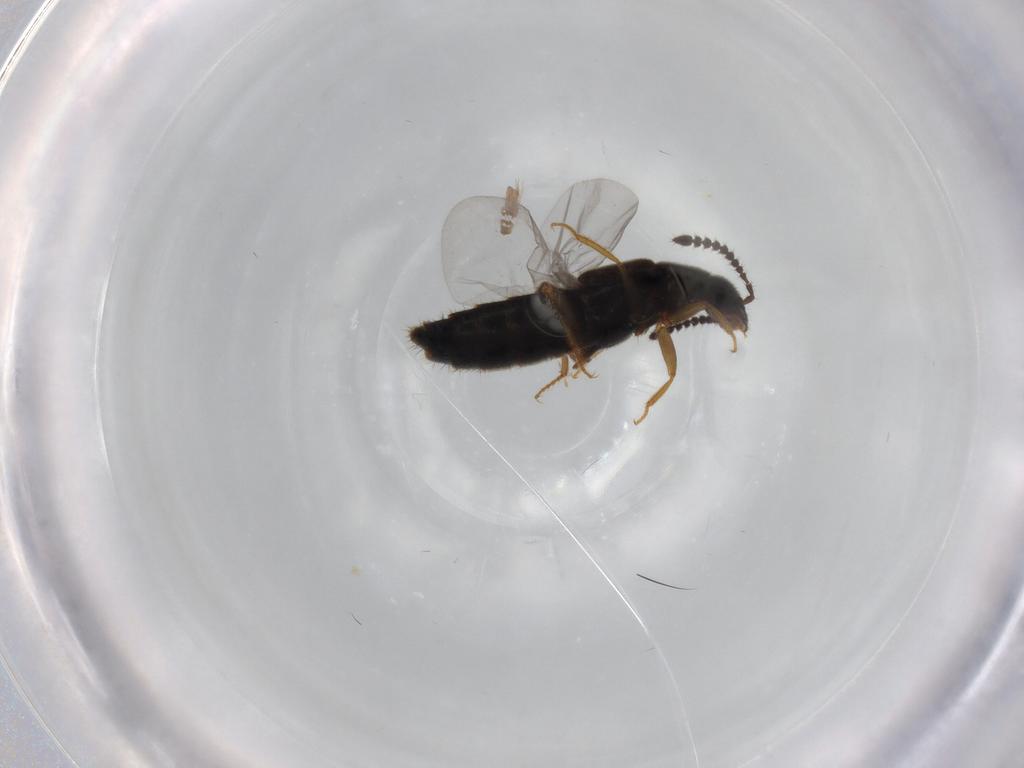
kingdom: Animalia
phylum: Arthropoda
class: Insecta
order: Coleoptera
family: Staphylinidae
